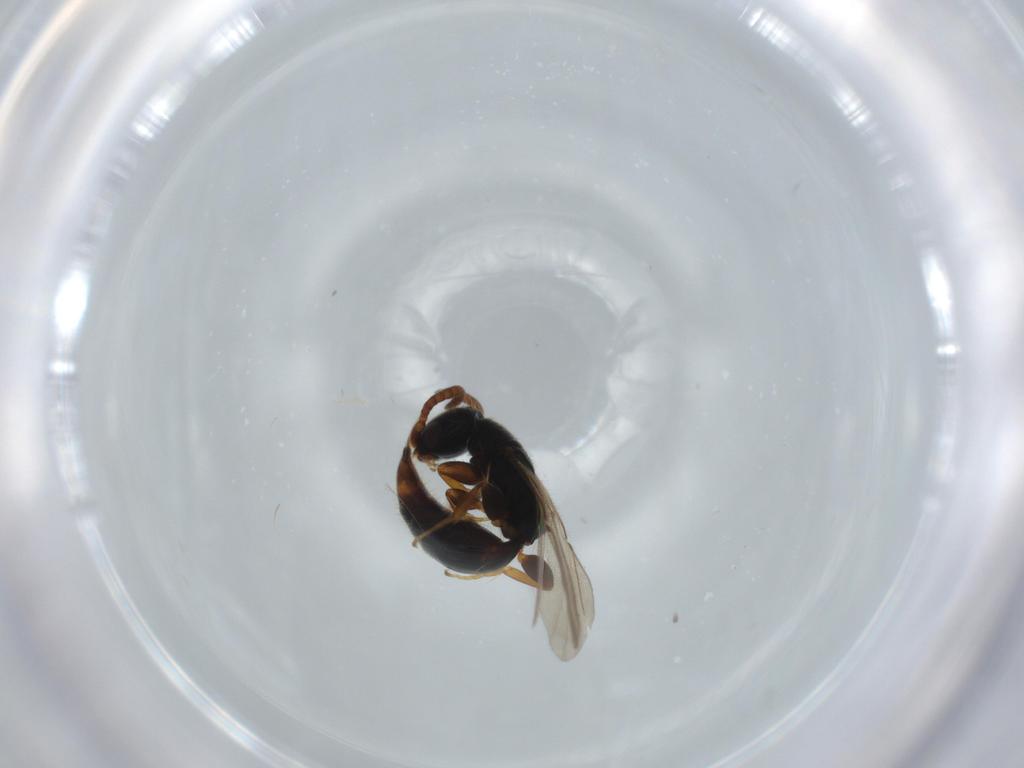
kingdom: Animalia
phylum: Arthropoda
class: Insecta
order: Hymenoptera
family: Bethylidae
